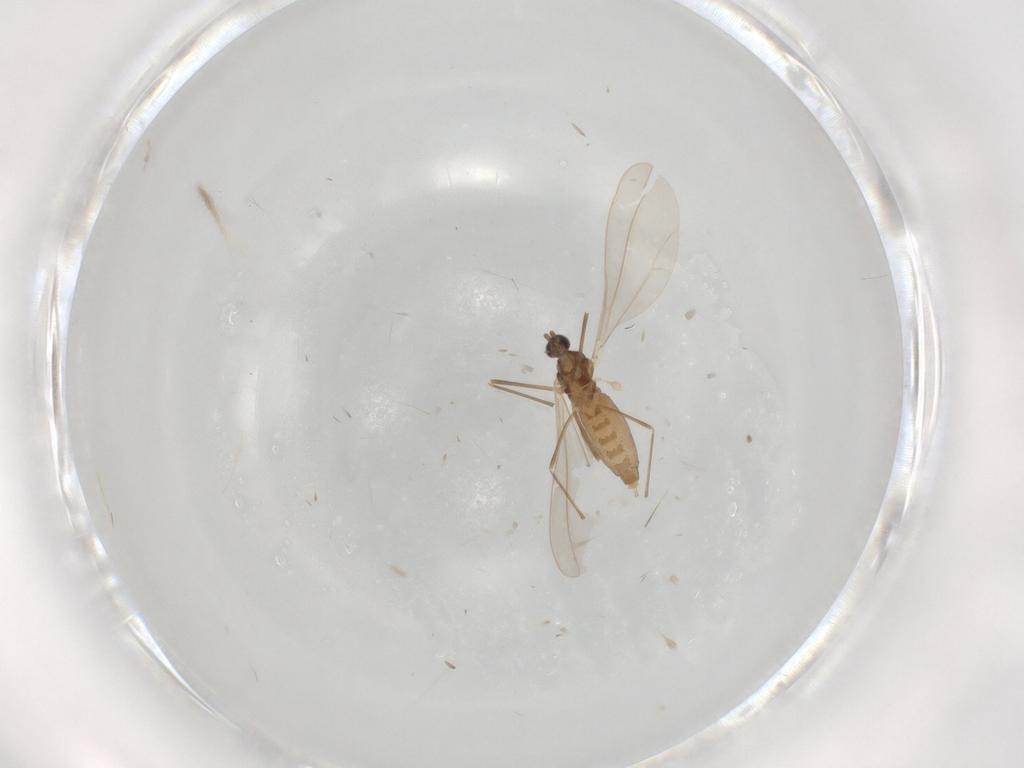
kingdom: Animalia
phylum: Arthropoda
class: Insecta
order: Diptera
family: Cecidomyiidae
